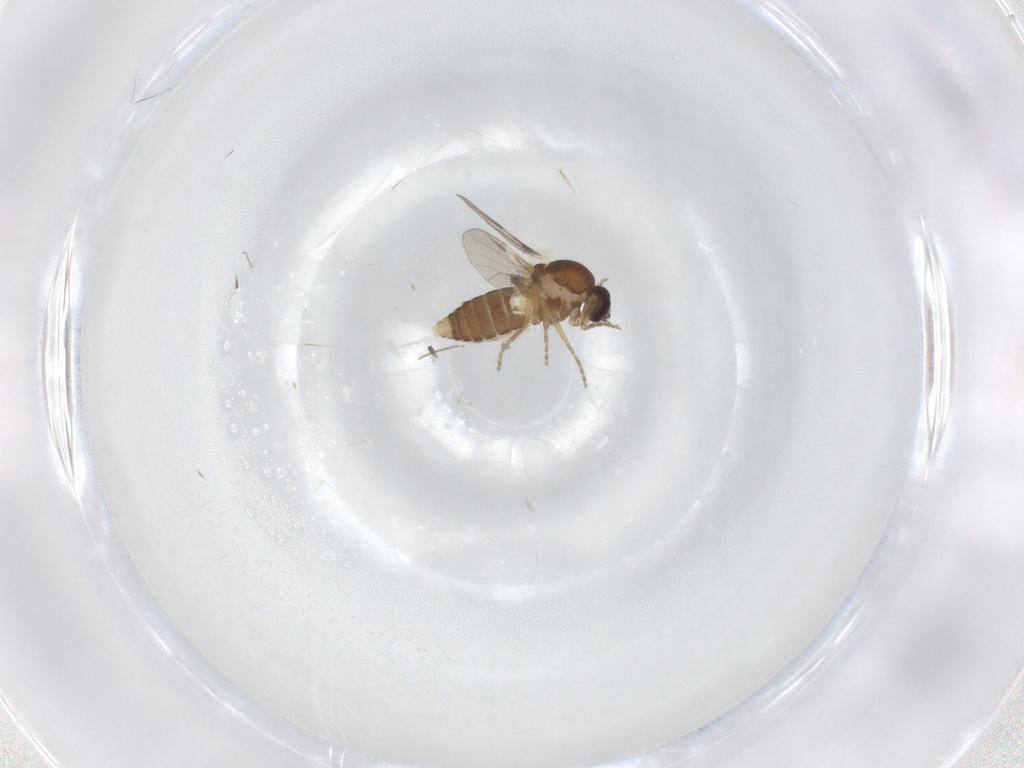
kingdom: Animalia
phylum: Arthropoda
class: Insecta
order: Diptera
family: Ceratopogonidae
